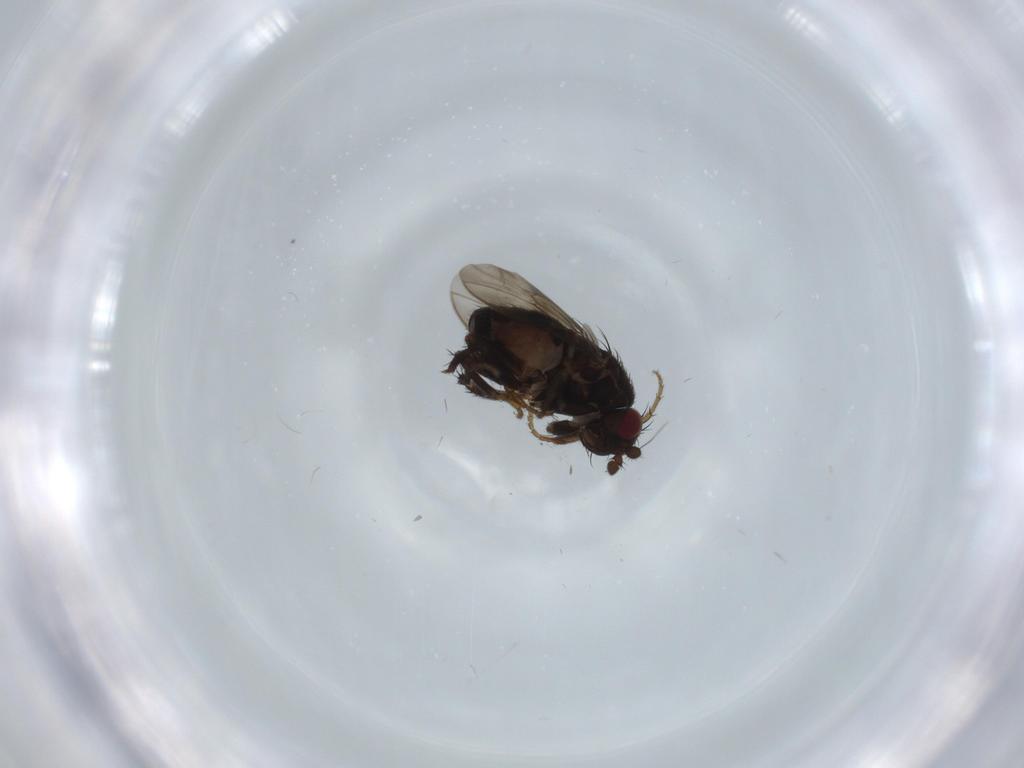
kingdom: Animalia
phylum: Arthropoda
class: Insecta
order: Diptera
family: Sphaeroceridae
